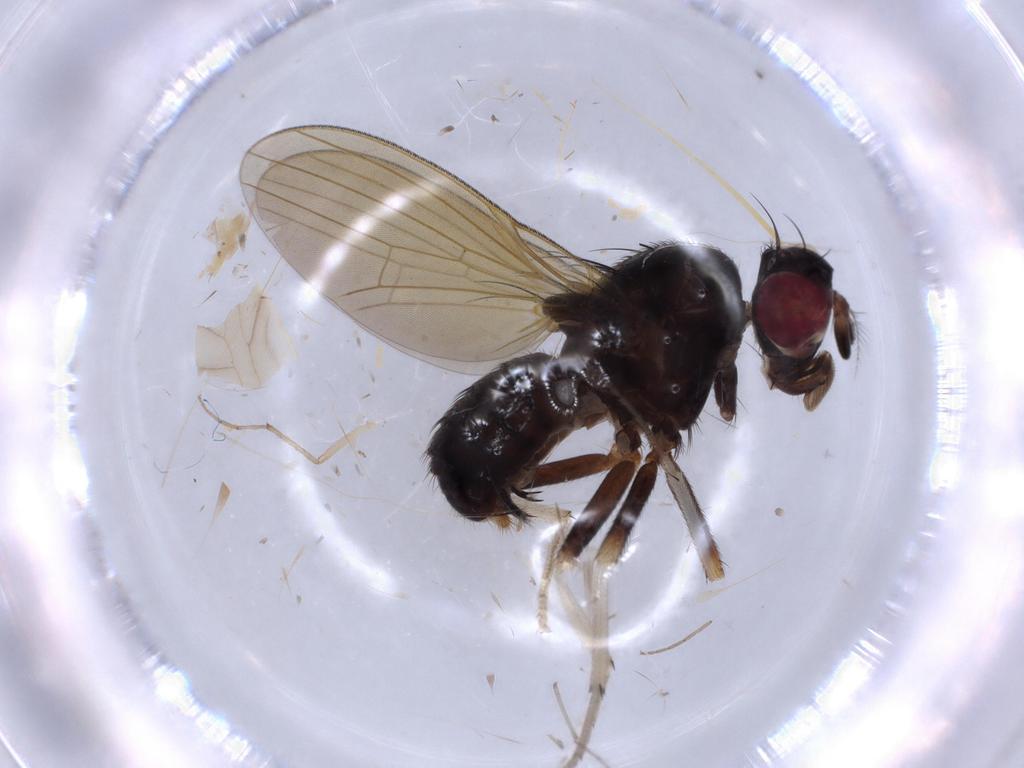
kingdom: Animalia
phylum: Arthropoda
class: Insecta
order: Diptera
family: Lauxaniidae
